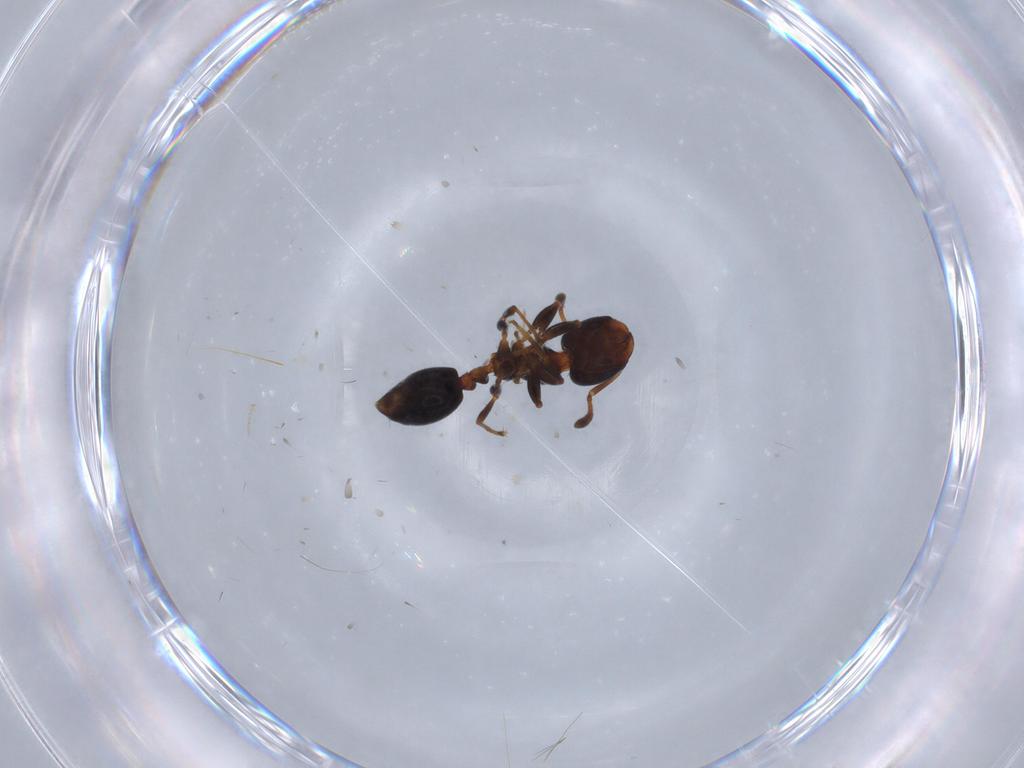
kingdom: Animalia
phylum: Arthropoda
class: Insecta
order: Hymenoptera
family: Formicidae
